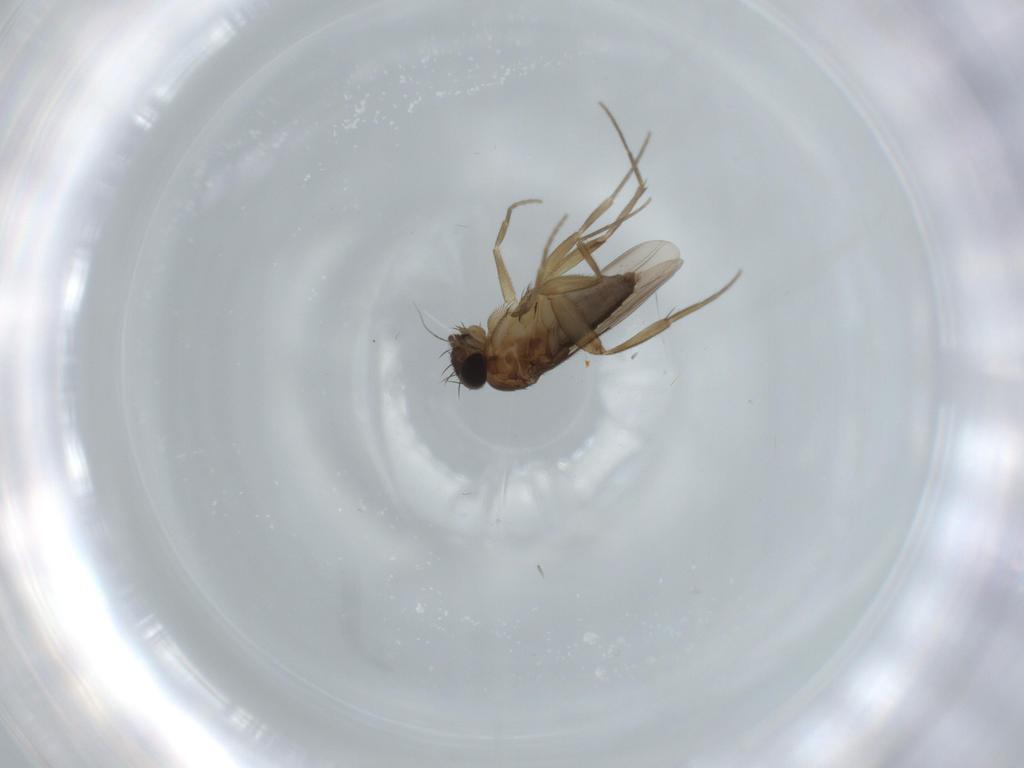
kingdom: Animalia
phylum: Arthropoda
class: Insecta
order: Diptera
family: Phoridae
